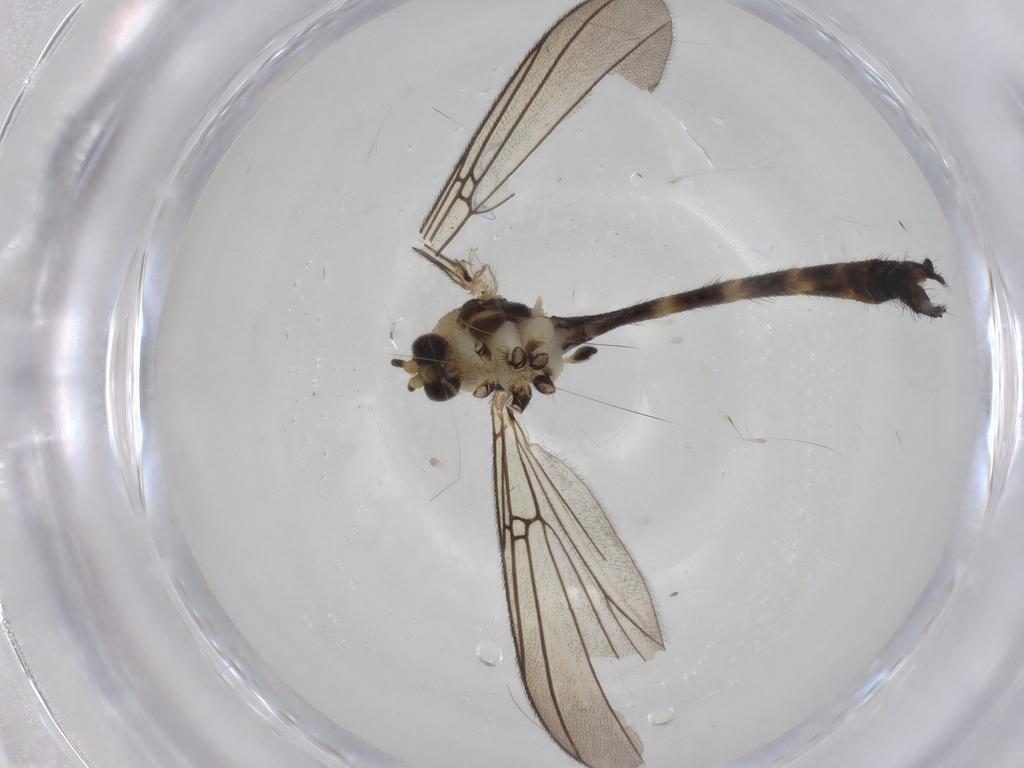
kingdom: Animalia
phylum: Arthropoda
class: Insecta
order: Diptera
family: Mycetophilidae
